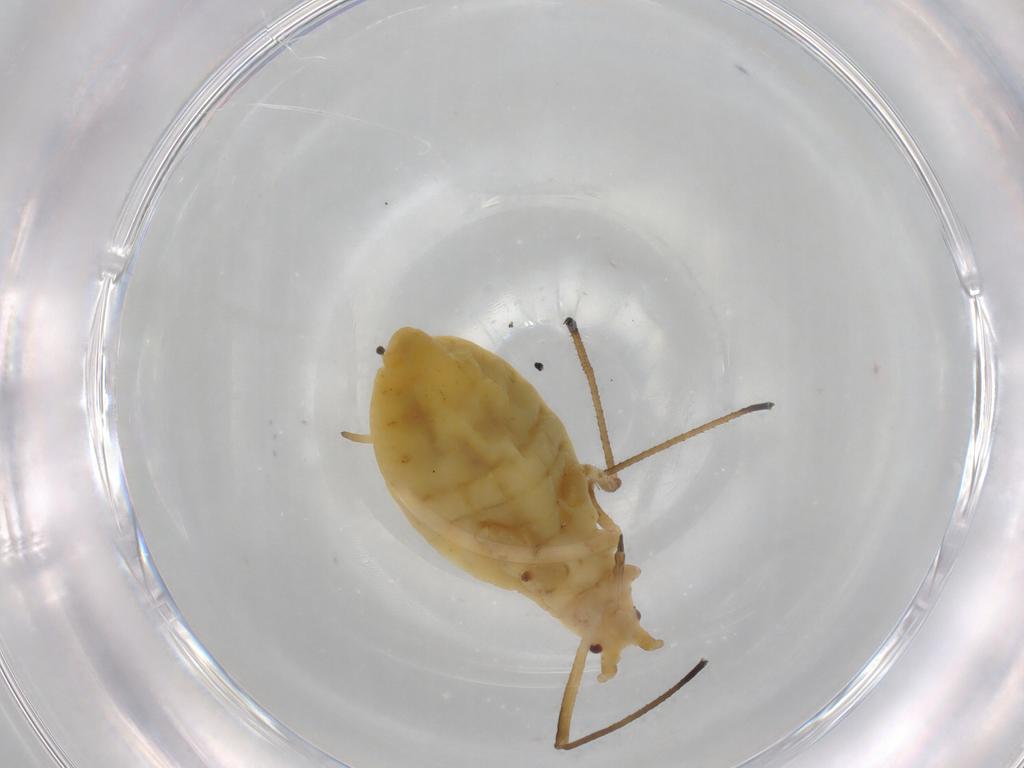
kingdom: Animalia
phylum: Arthropoda
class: Insecta
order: Hemiptera
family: Aphididae
